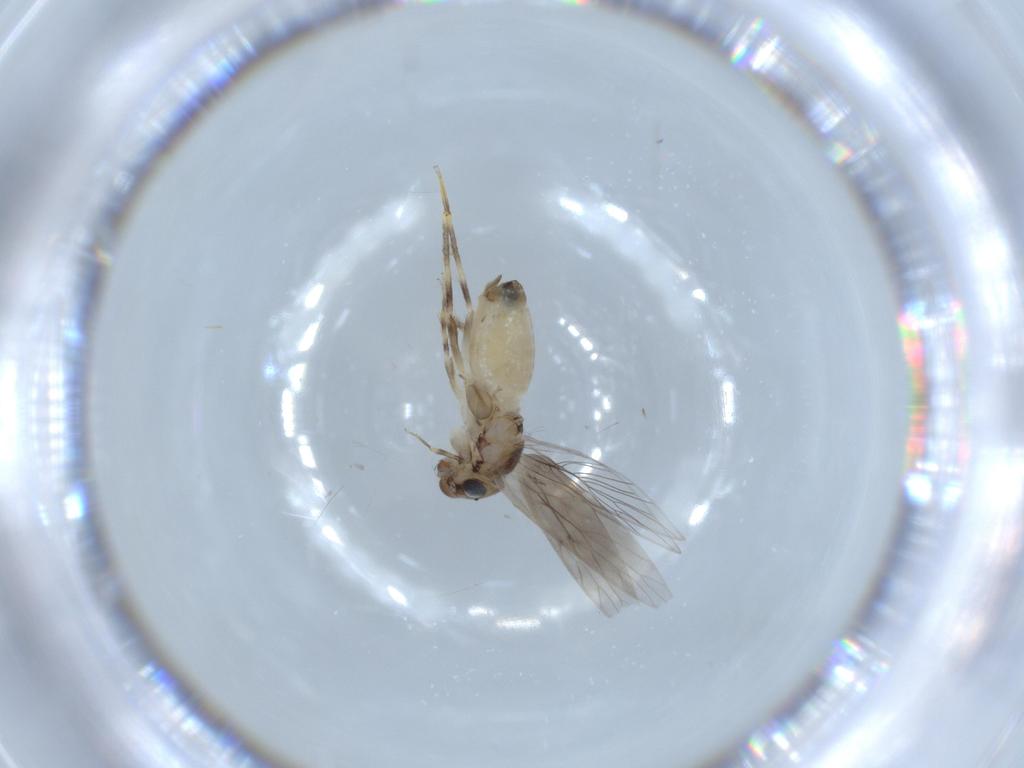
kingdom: Animalia
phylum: Arthropoda
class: Insecta
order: Psocodea
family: Lepidopsocidae
